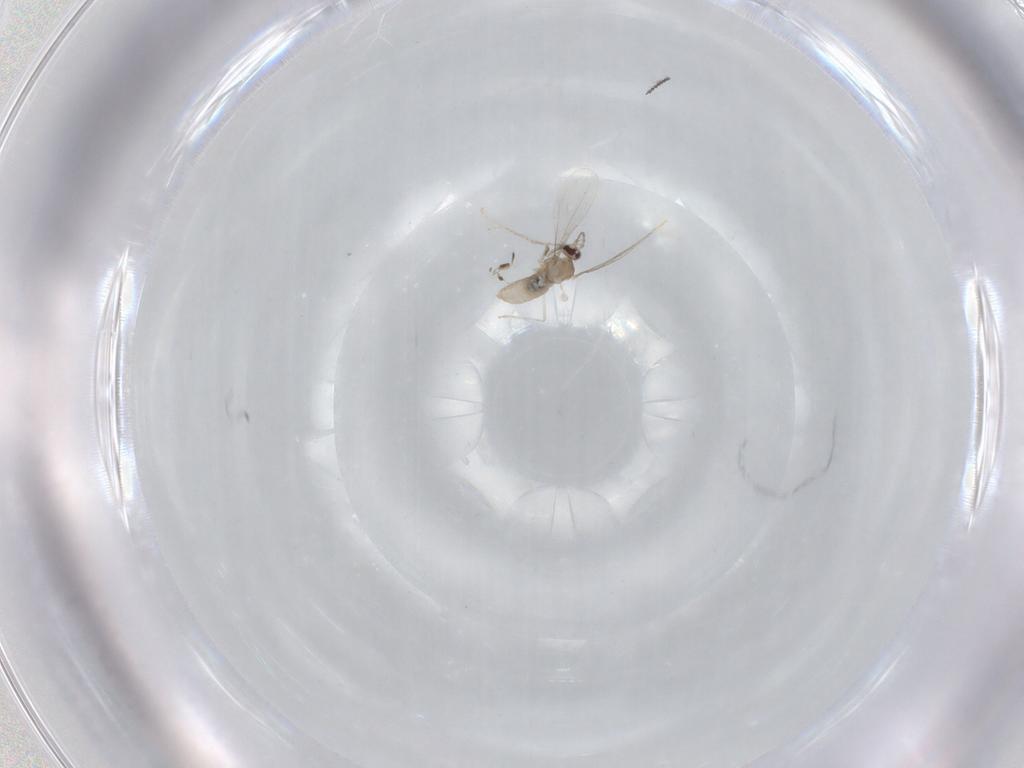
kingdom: Animalia
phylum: Arthropoda
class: Insecta
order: Diptera
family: Cecidomyiidae
